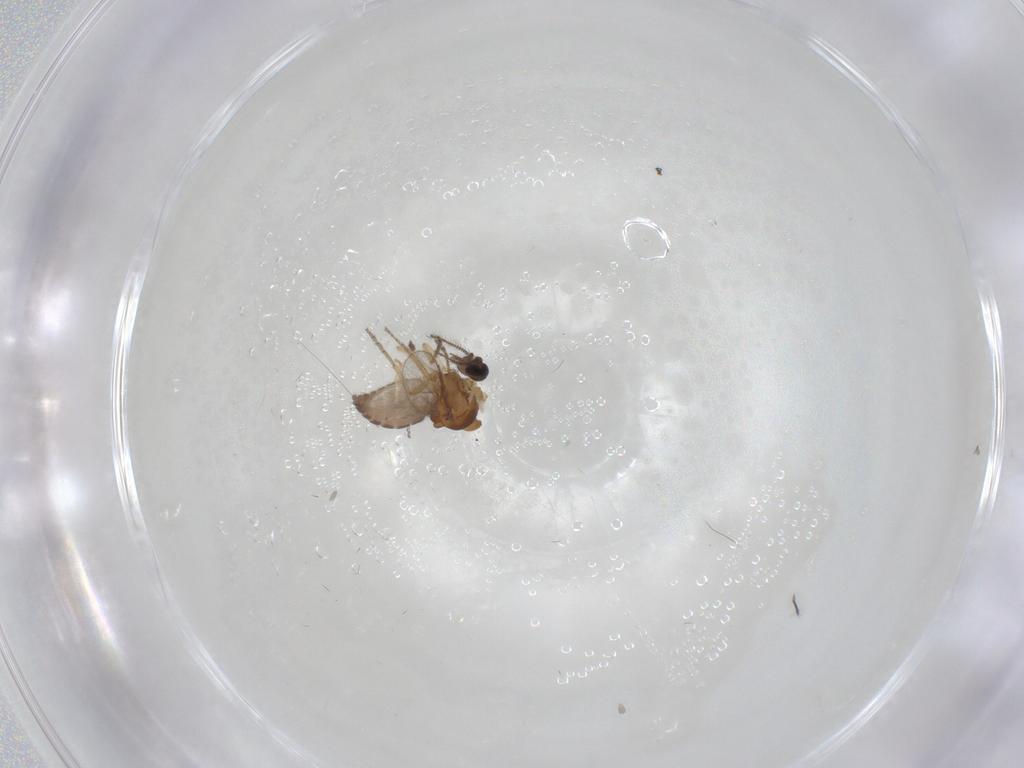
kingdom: Animalia
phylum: Arthropoda
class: Insecta
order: Diptera
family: Ceratopogonidae
